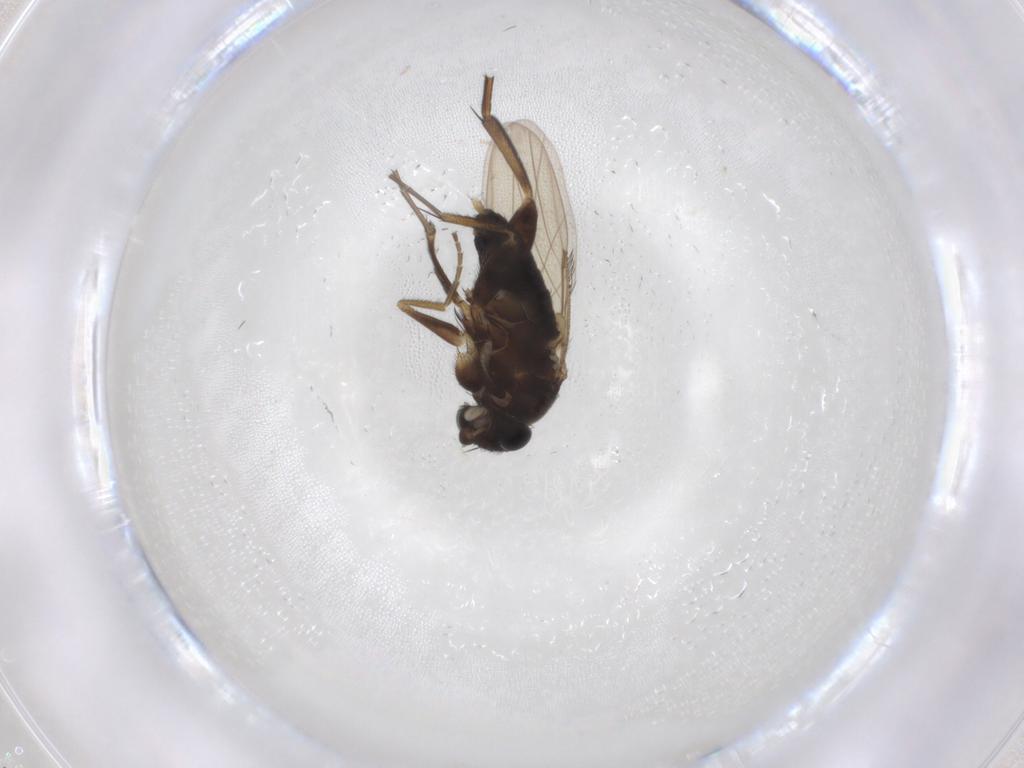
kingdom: Animalia
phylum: Arthropoda
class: Insecta
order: Diptera
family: Phoridae
